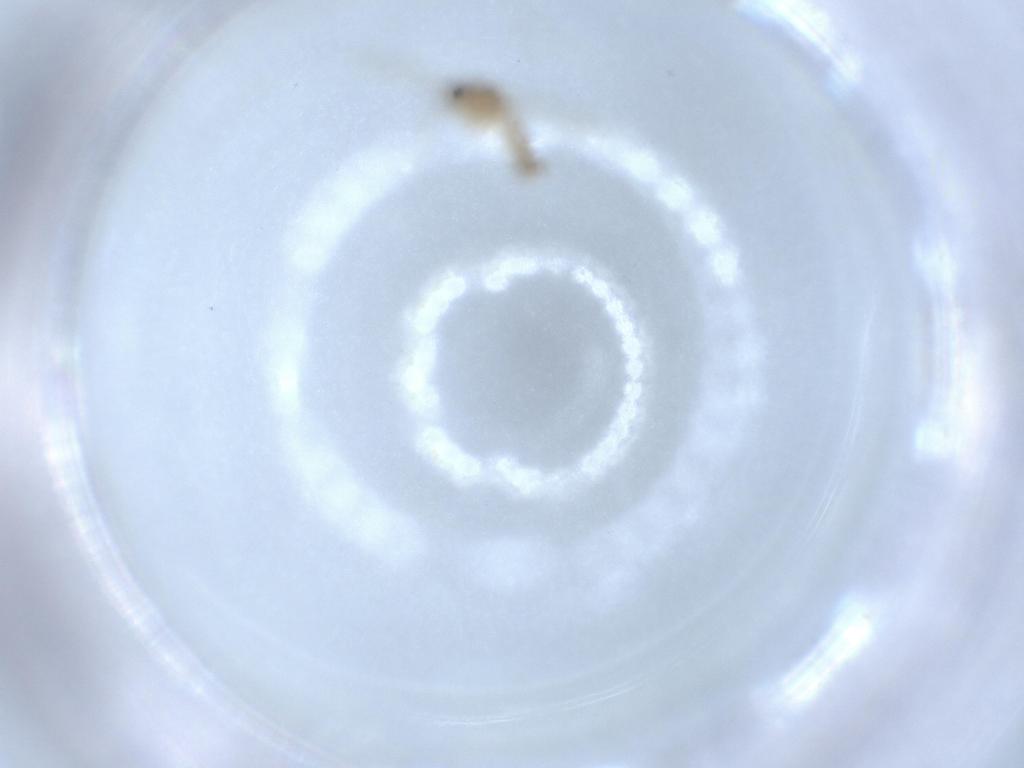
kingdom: Animalia
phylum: Arthropoda
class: Insecta
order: Diptera
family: Psychodidae
